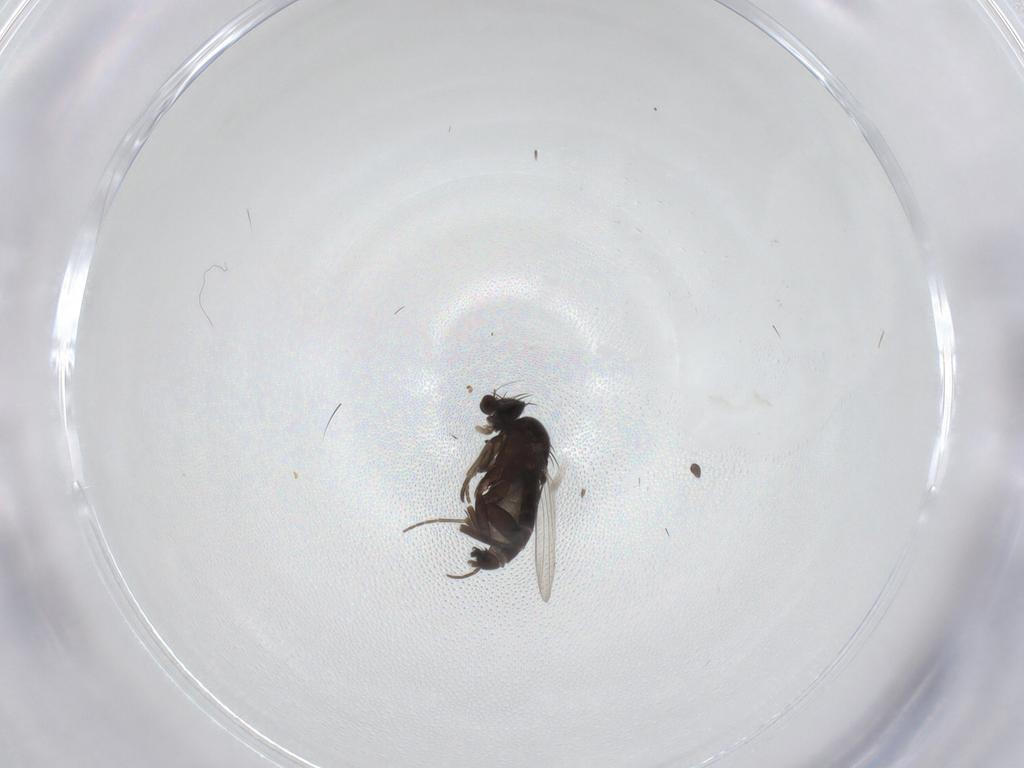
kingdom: Animalia
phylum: Arthropoda
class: Insecta
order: Diptera
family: Phoridae
